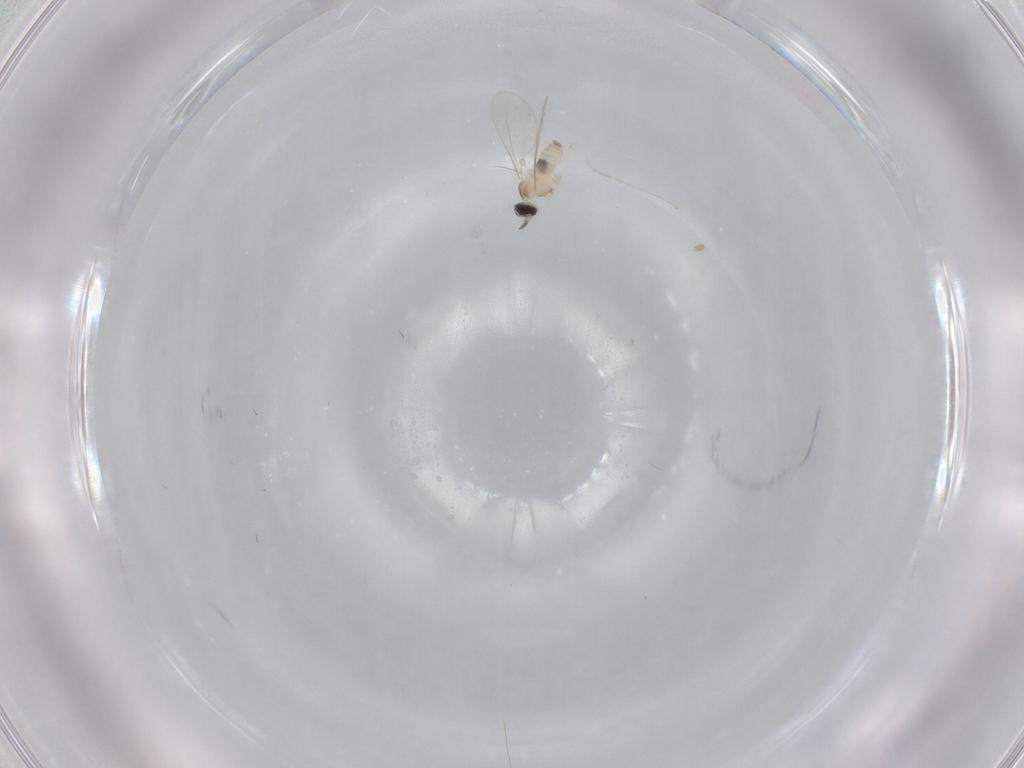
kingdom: Animalia
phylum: Arthropoda
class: Insecta
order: Diptera
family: Cecidomyiidae
